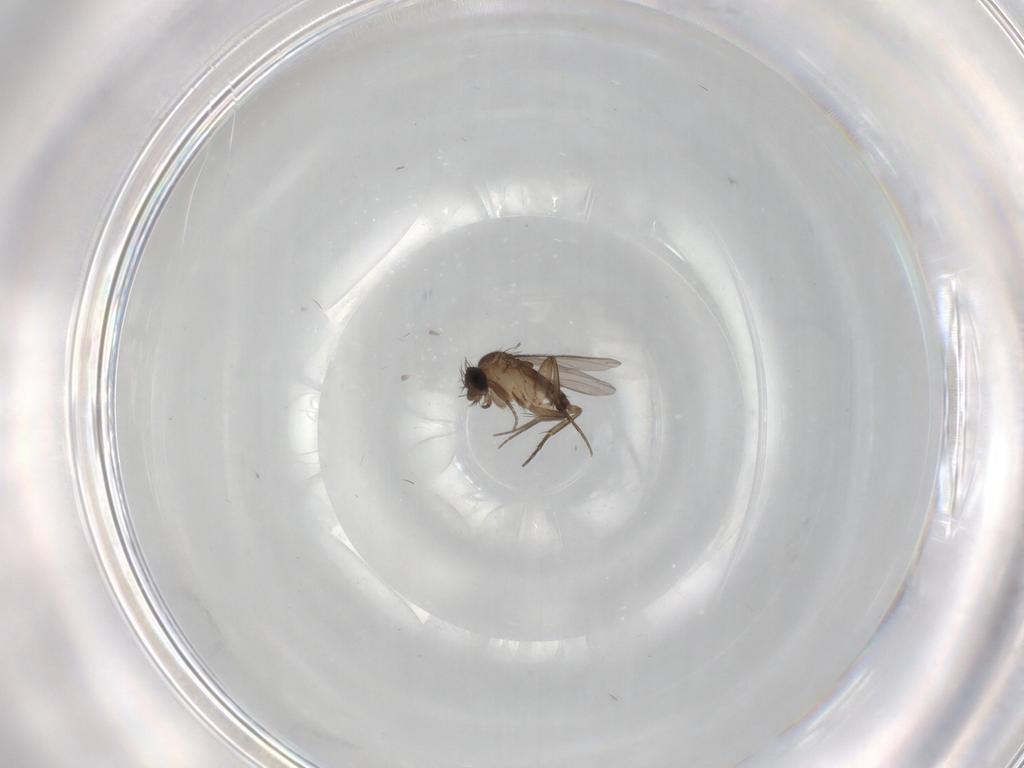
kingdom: Animalia
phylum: Arthropoda
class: Insecta
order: Diptera
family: Phoridae
